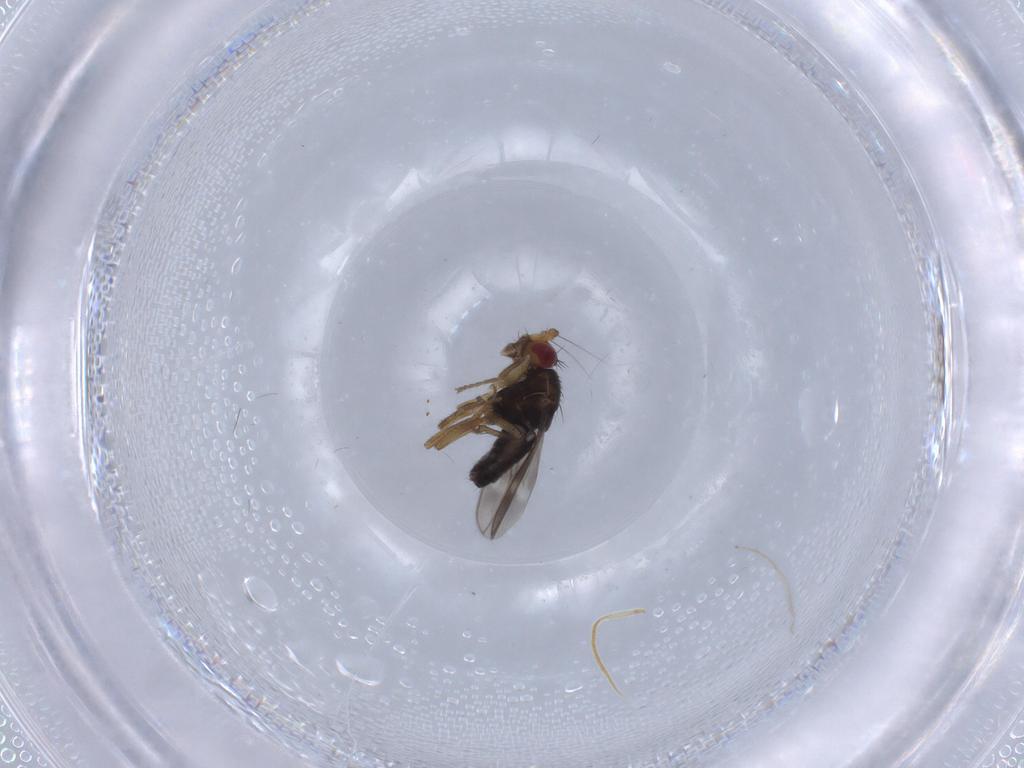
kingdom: Animalia
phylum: Arthropoda
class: Insecta
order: Diptera
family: Sphaeroceridae
